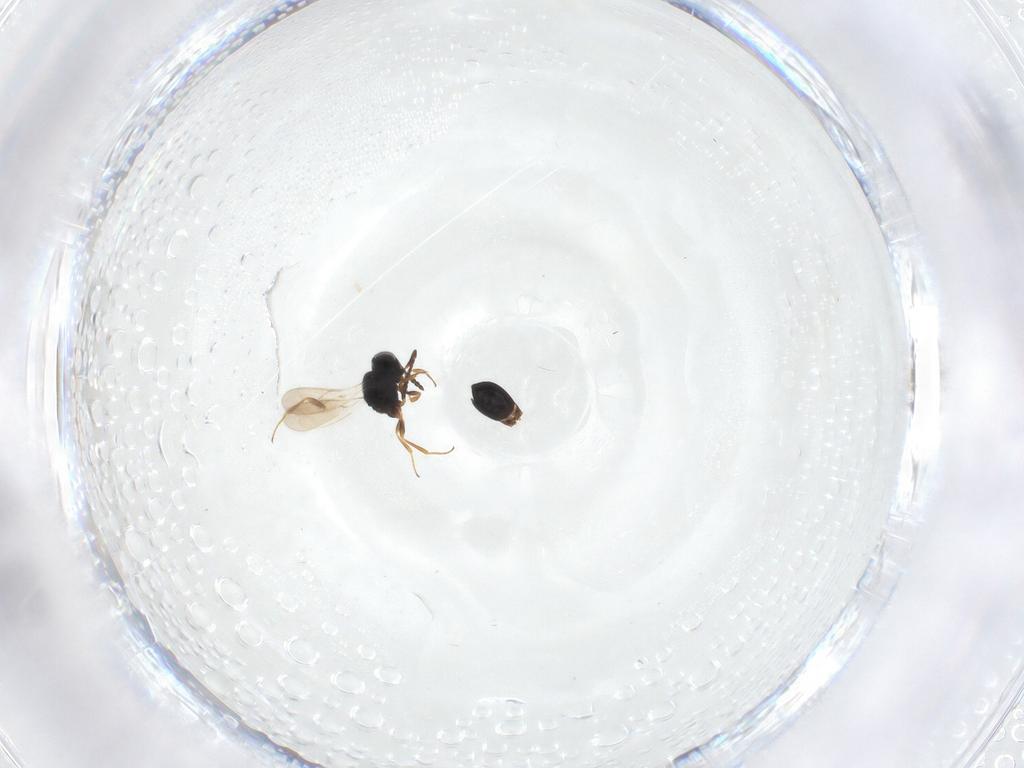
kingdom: Animalia
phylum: Arthropoda
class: Insecta
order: Hymenoptera
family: Scelionidae
